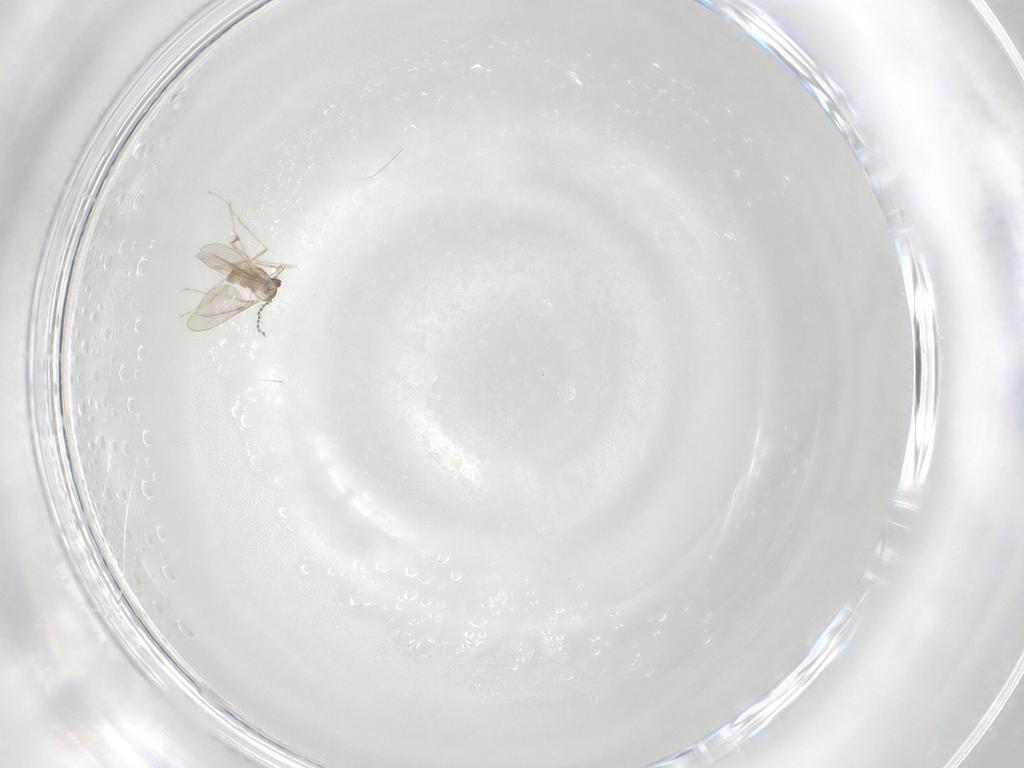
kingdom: Animalia
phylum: Arthropoda
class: Insecta
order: Diptera
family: Cecidomyiidae
